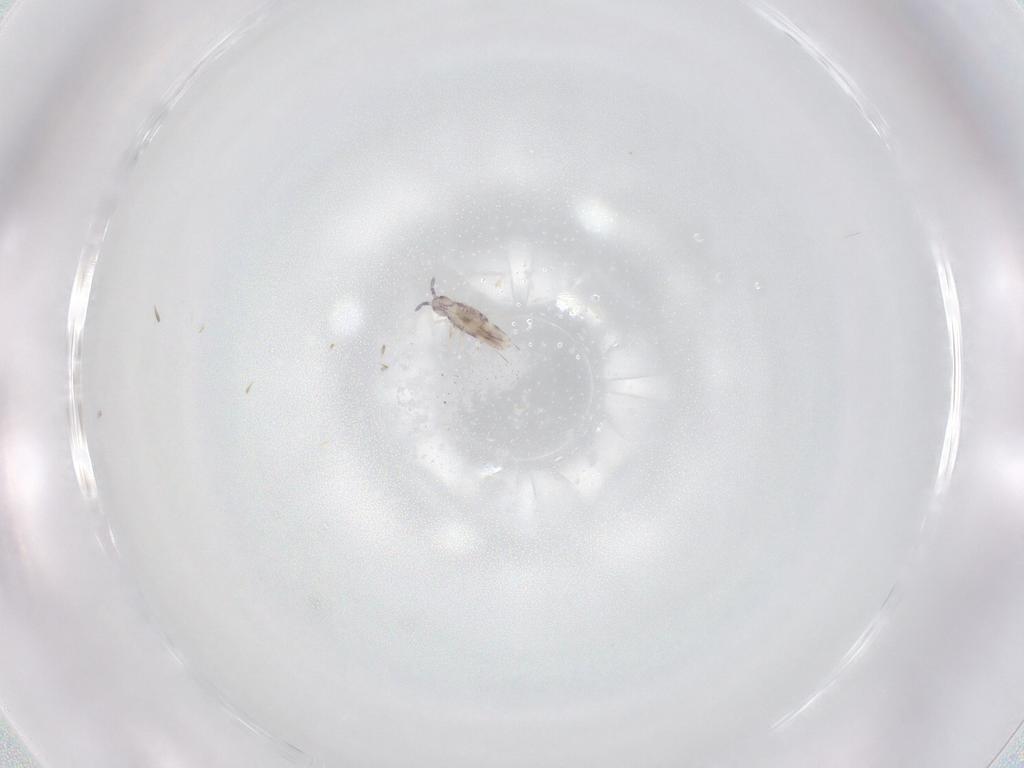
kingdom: Animalia
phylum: Arthropoda
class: Collembola
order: Entomobryomorpha
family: Entomobryidae
